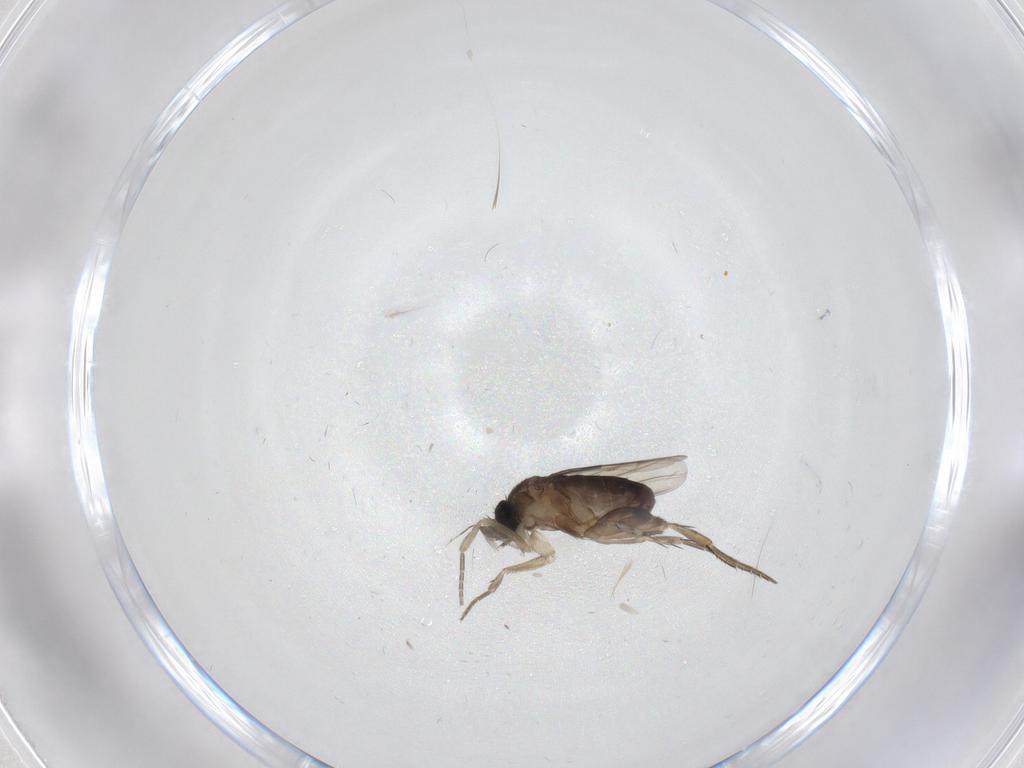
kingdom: Animalia
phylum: Arthropoda
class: Insecta
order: Diptera
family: Phoridae
